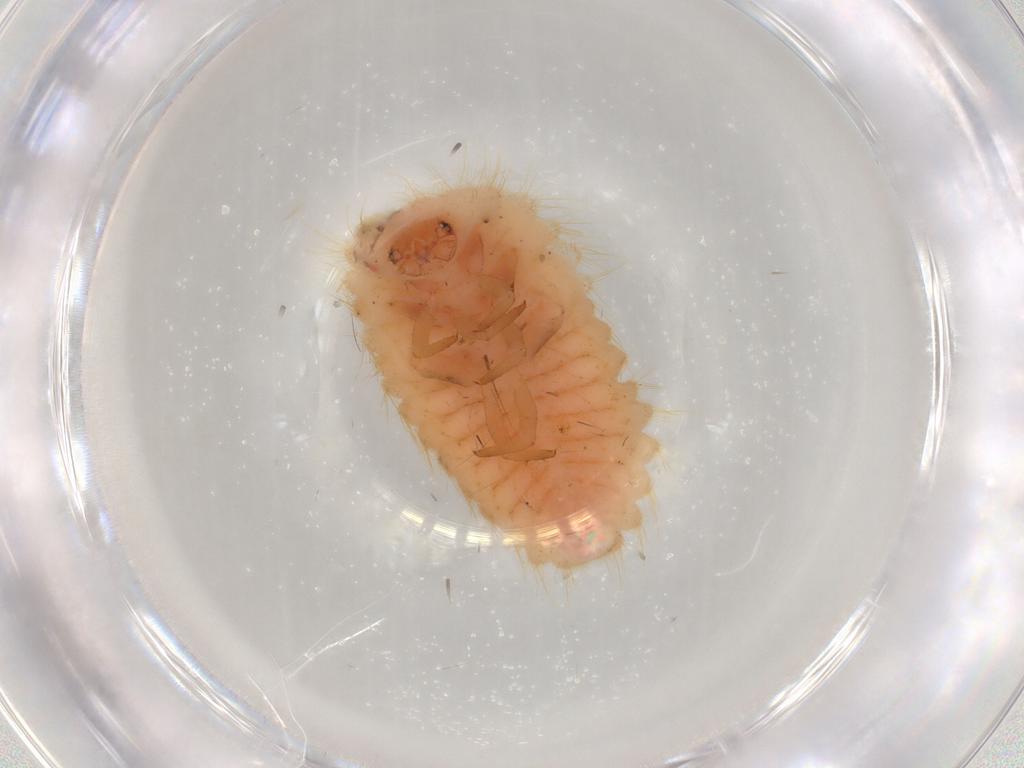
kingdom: Animalia
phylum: Arthropoda
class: Insecta
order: Coleoptera
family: Coccinellidae
